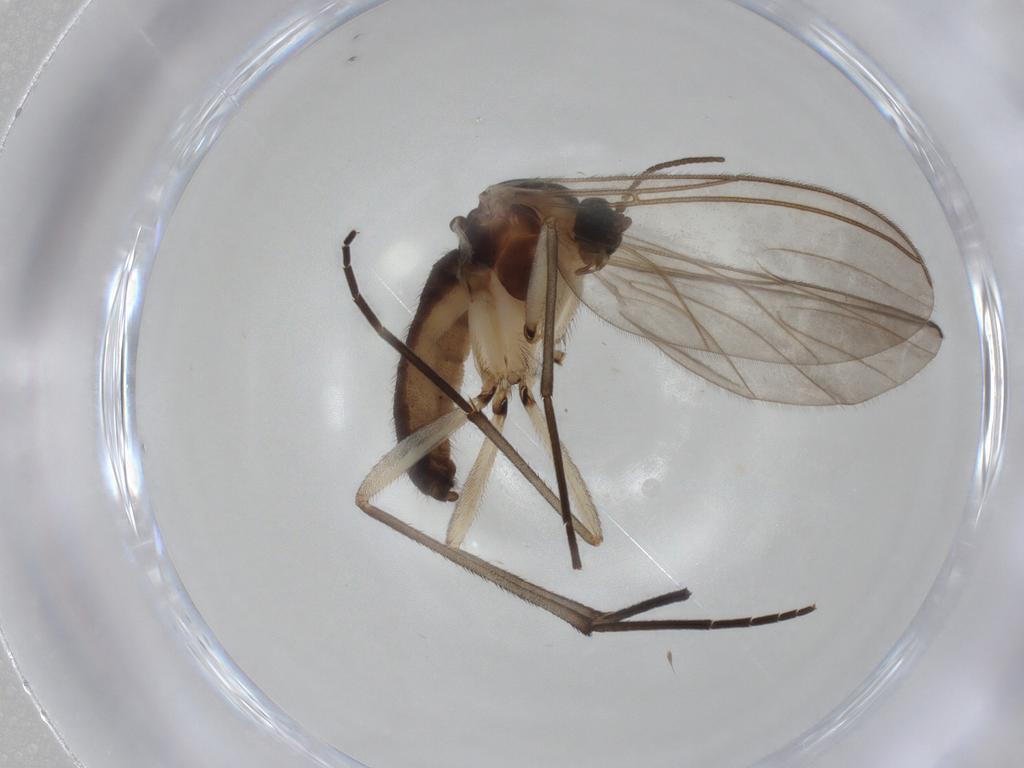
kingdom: Animalia
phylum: Arthropoda
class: Insecta
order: Diptera
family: Sciaridae
